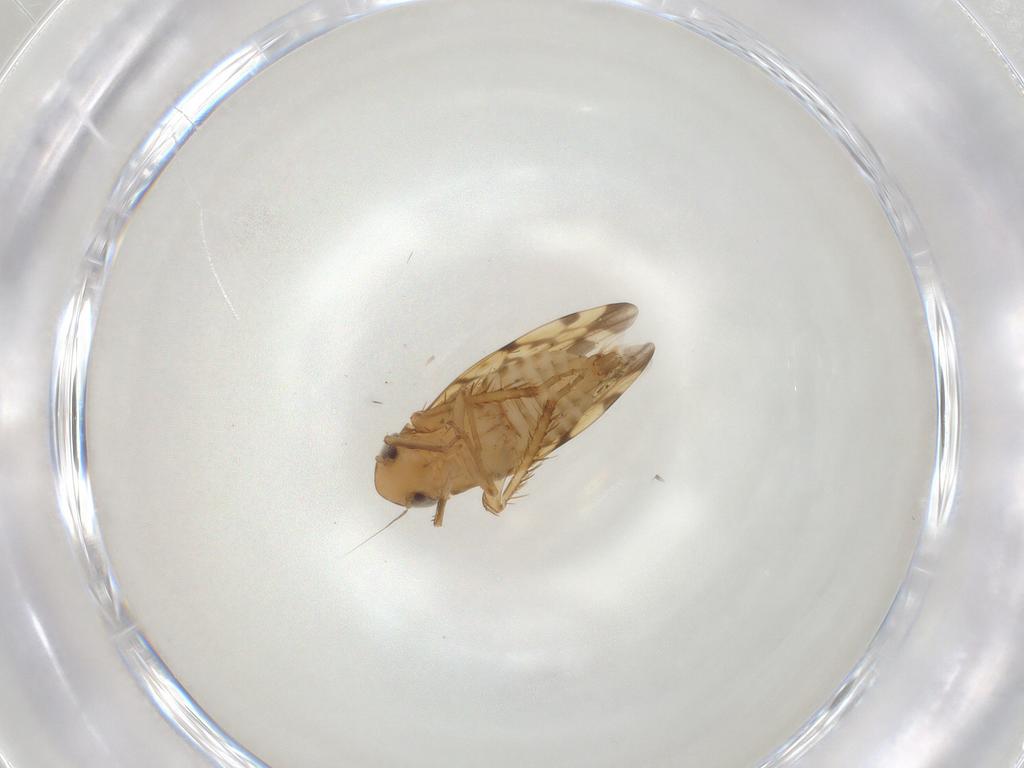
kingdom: Animalia
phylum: Arthropoda
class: Insecta
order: Hemiptera
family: Cicadellidae
